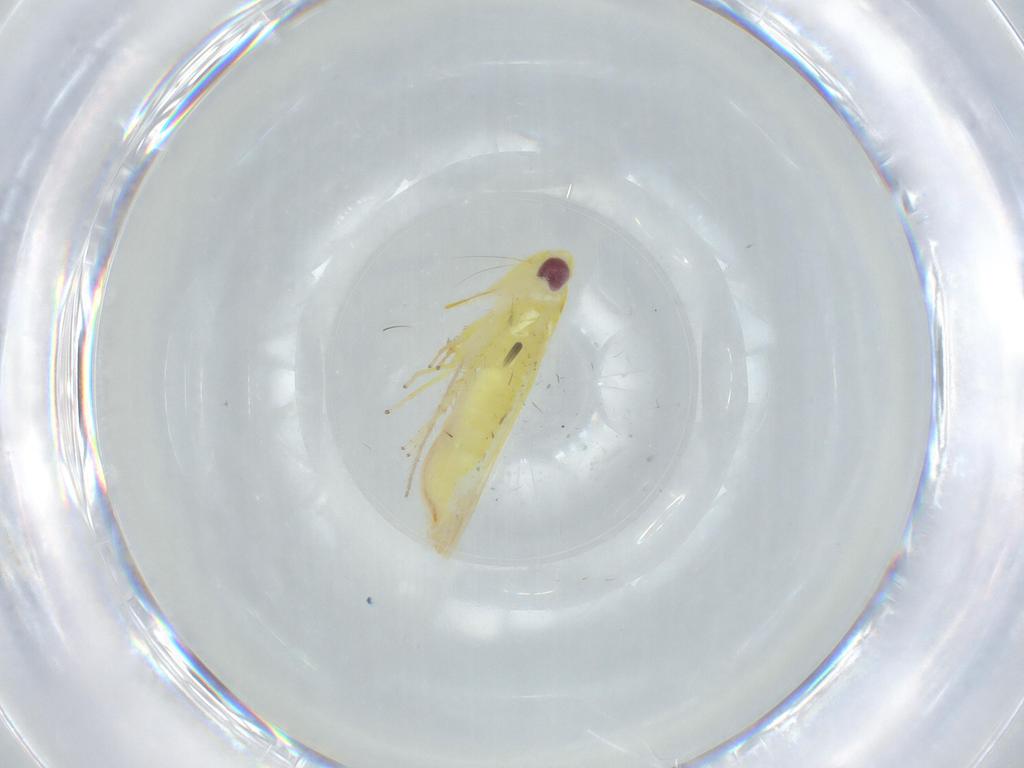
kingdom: Animalia
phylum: Arthropoda
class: Insecta
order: Hemiptera
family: Cicadellidae
